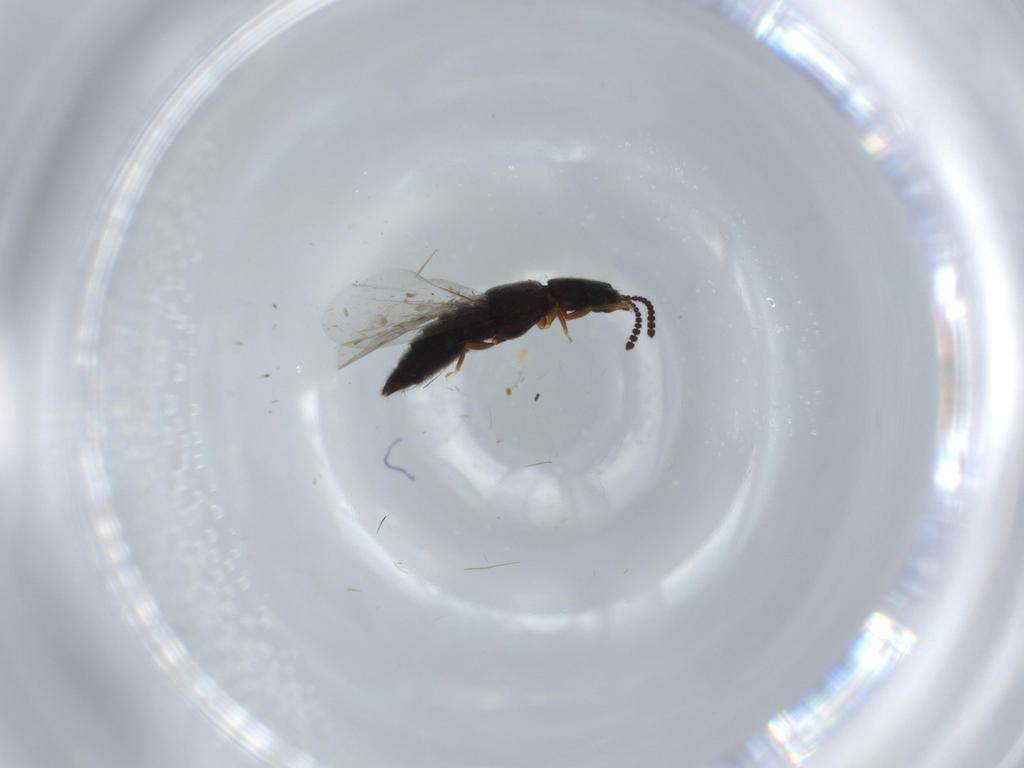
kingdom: Animalia
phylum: Arthropoda
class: Insecta
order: Coleoptera
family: Staphylinidae
